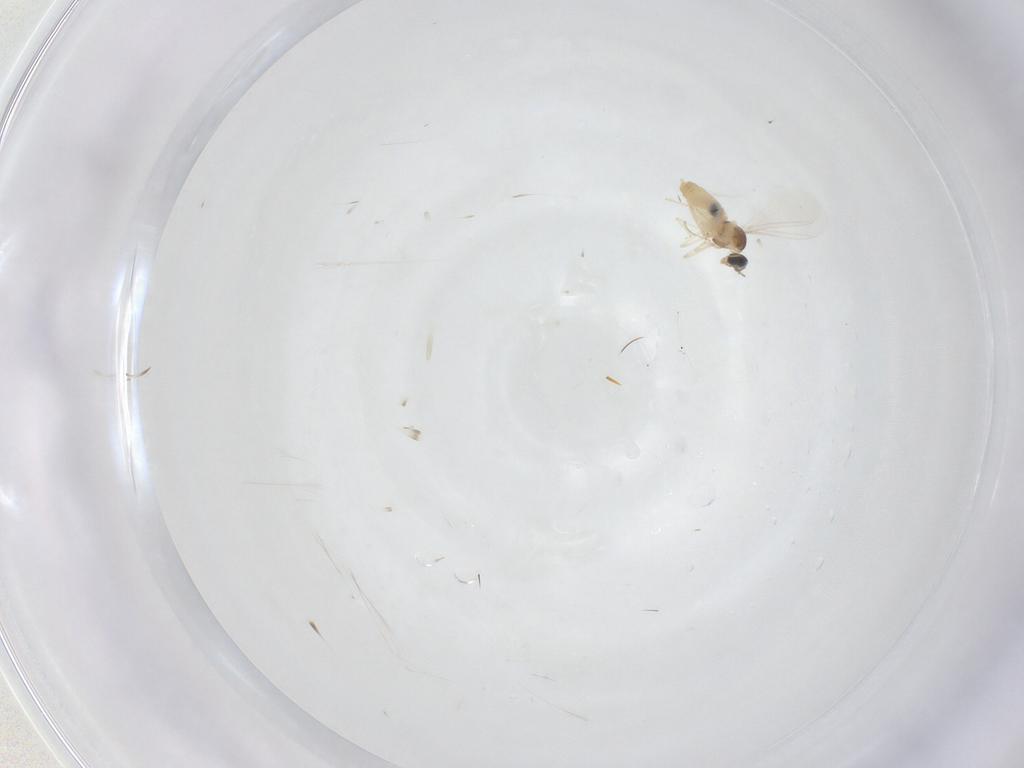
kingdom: Animalia
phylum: Arthropoda
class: Insecta
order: Diptera
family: Cecidomyiidae
